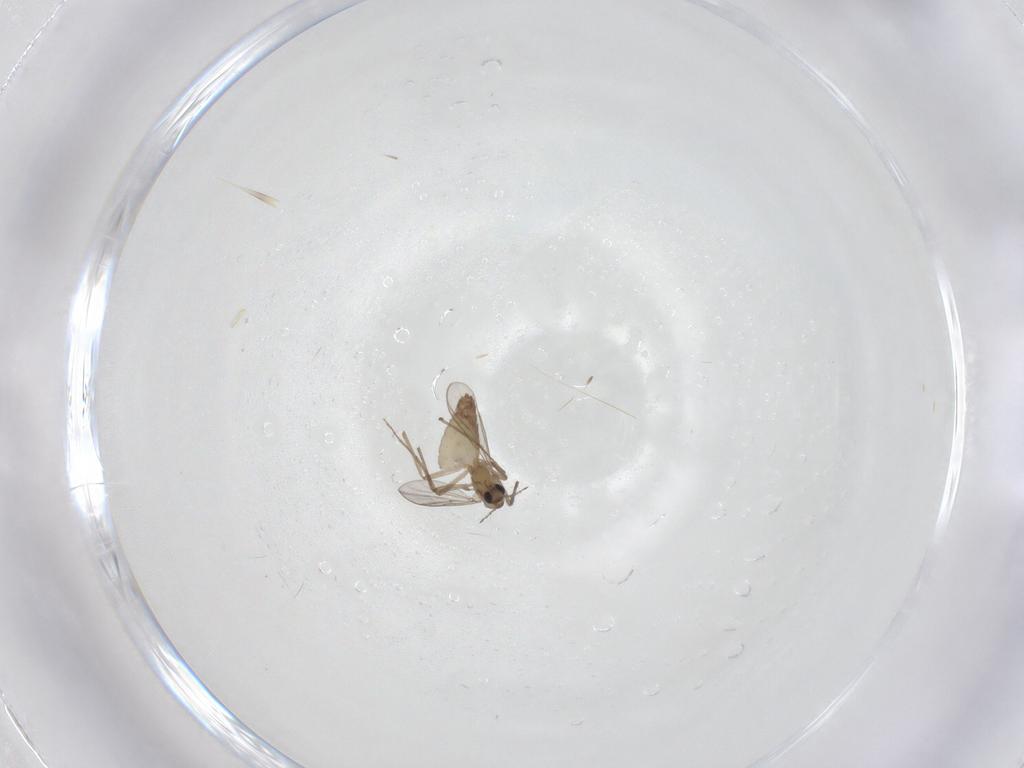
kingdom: Animalia
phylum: Arthropoda
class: Insecta
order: Diptera
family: Chironomidae
